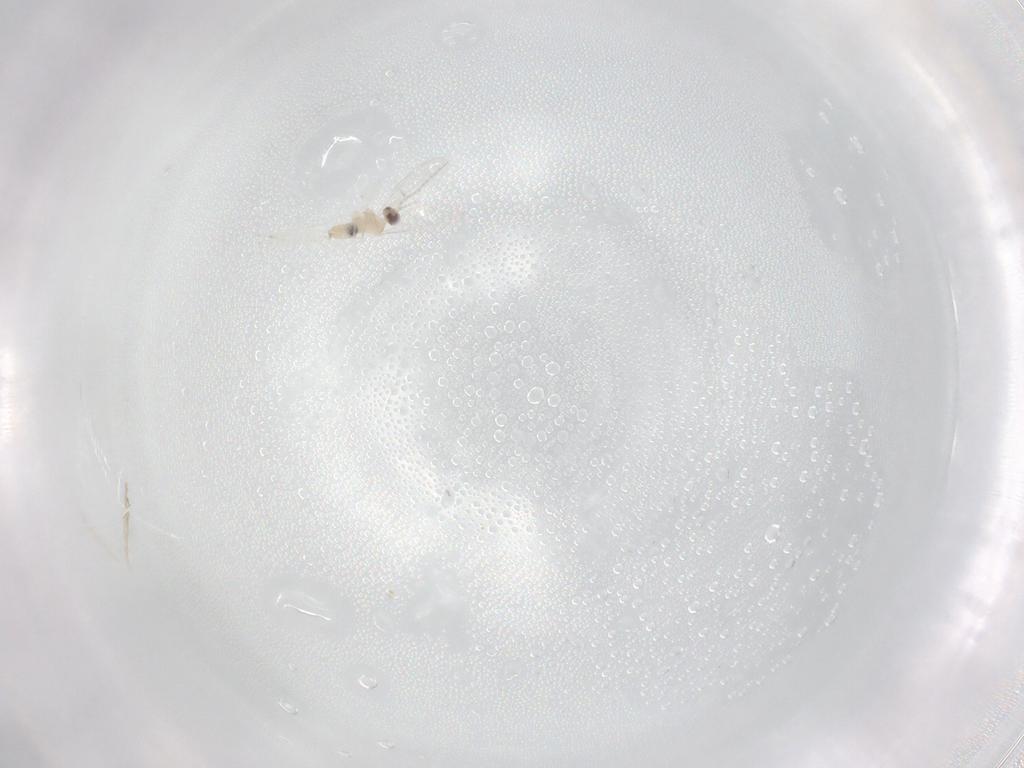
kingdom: Animalia
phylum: Arthropoda
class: Insecta
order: Diptera
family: Cecidomyiidae
